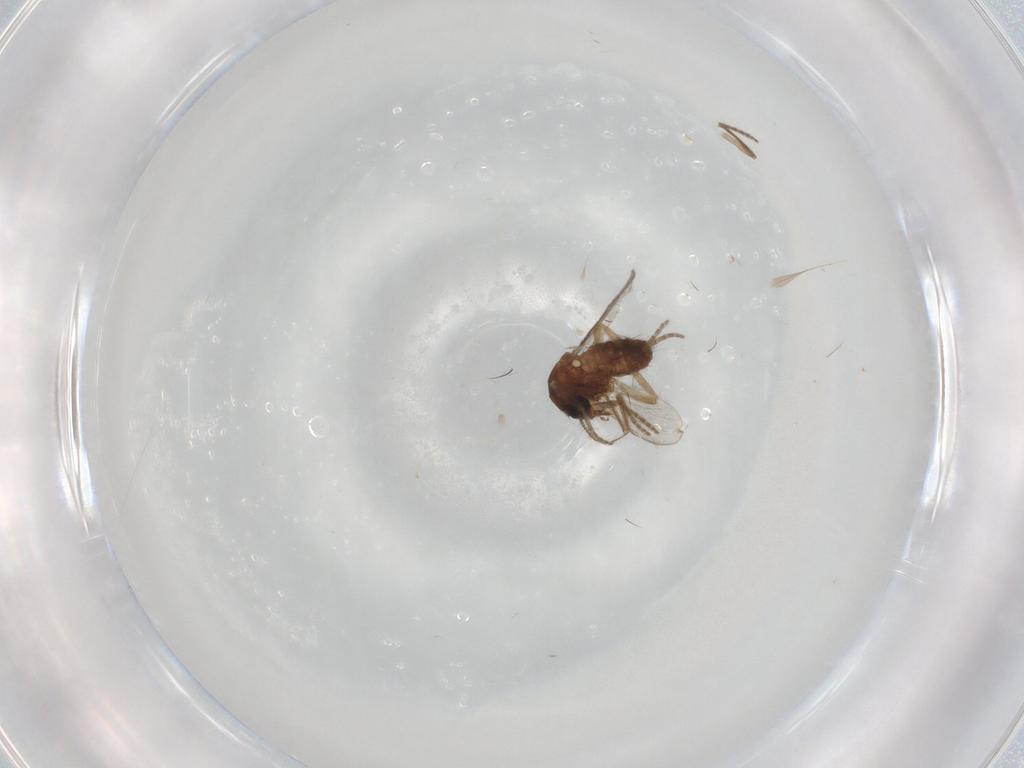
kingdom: Animalia
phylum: Arthropoda
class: Insecta
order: Diptera
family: Ceratopogonidae
